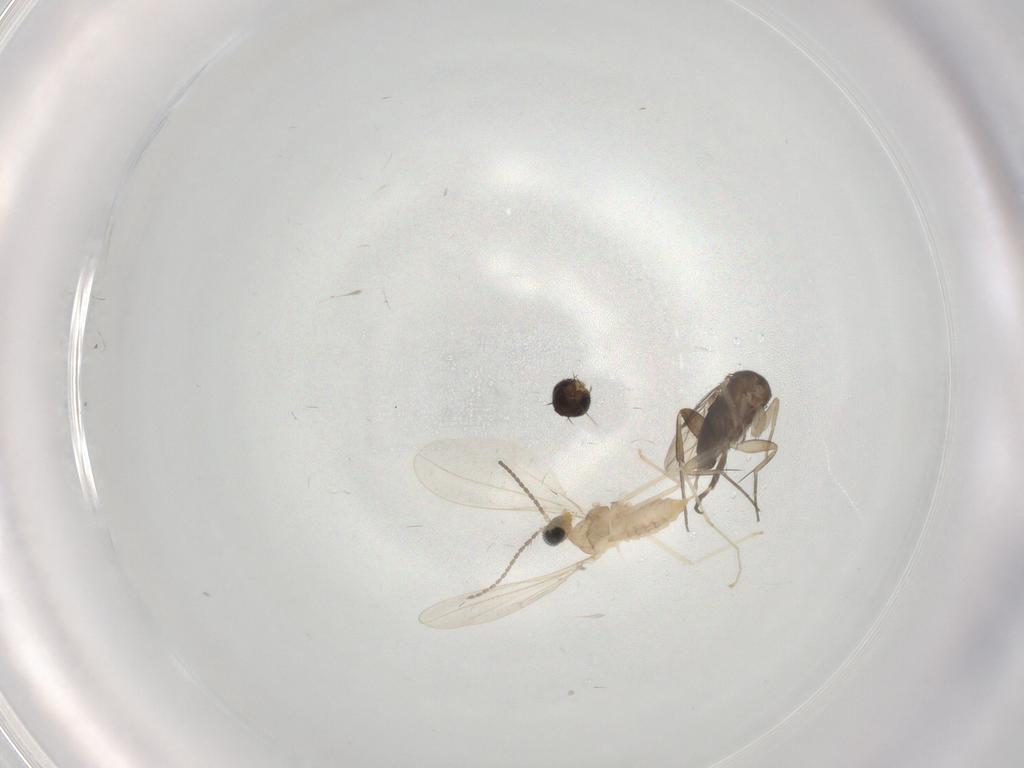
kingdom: Animalia
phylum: Arthropoda
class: Insecta
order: Diptera
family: Phoridae
